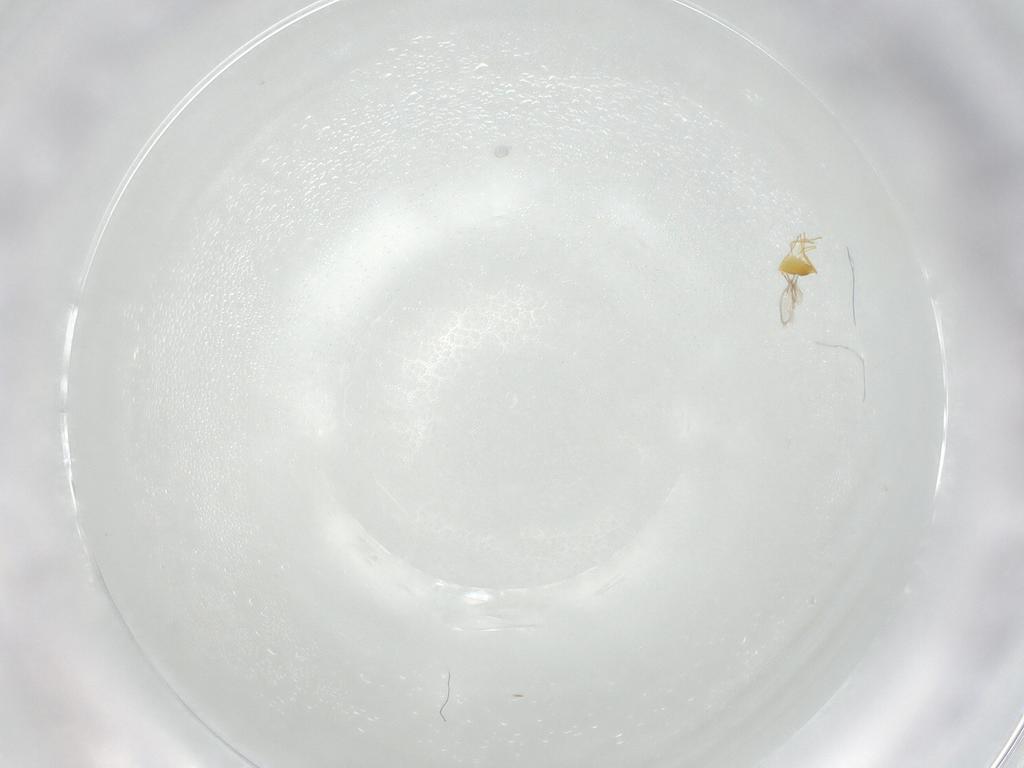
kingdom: Animalia
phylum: Arthropoda
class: Insecta
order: Hymenoptera
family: Aphelinidae
